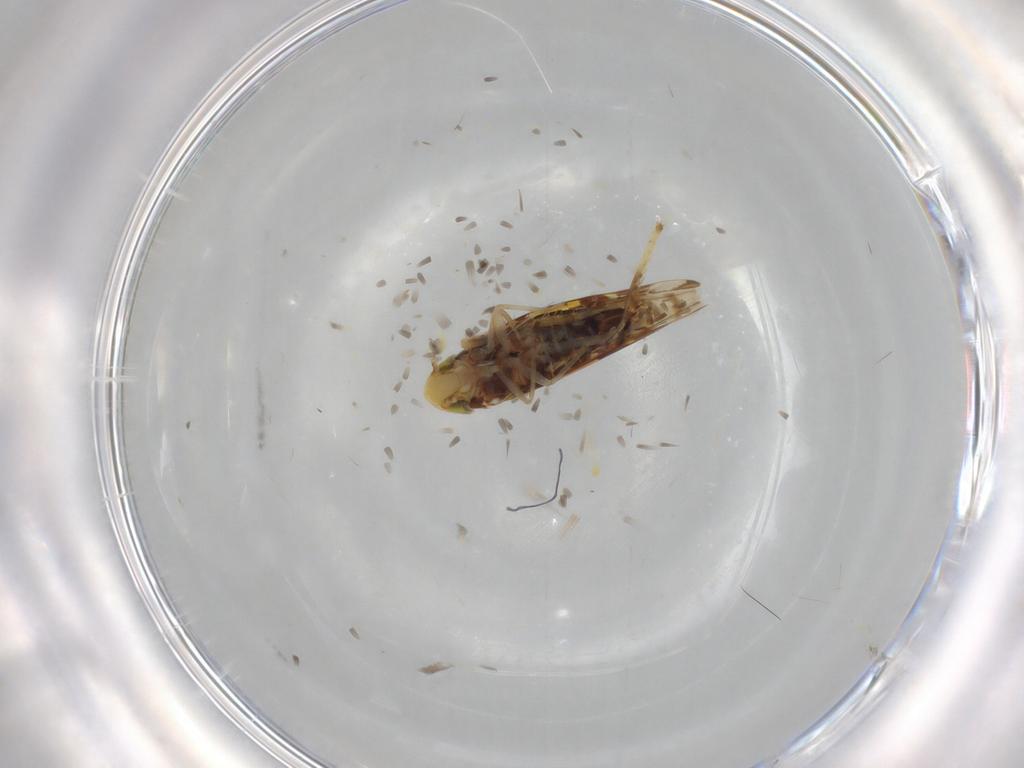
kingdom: Animalia
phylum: Arthropoda
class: Insecta
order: Hemiptera
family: Cicadellidae
